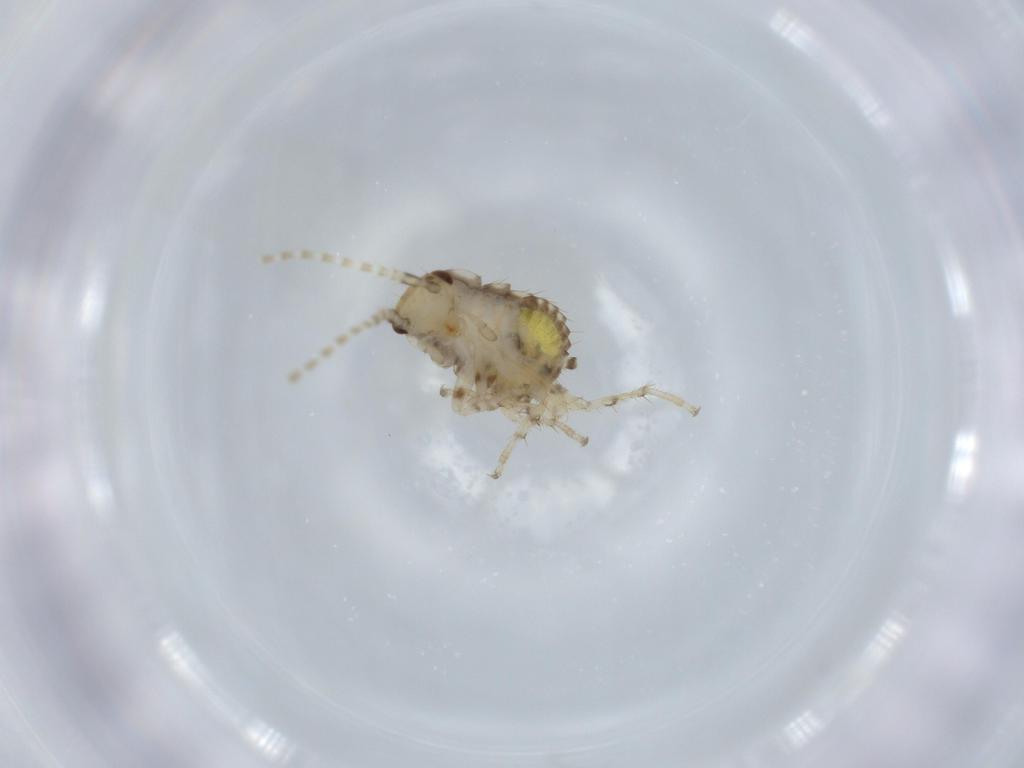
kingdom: Animalia
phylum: Arthropoda
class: Insecta
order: Blattodea
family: Ectobiidae
